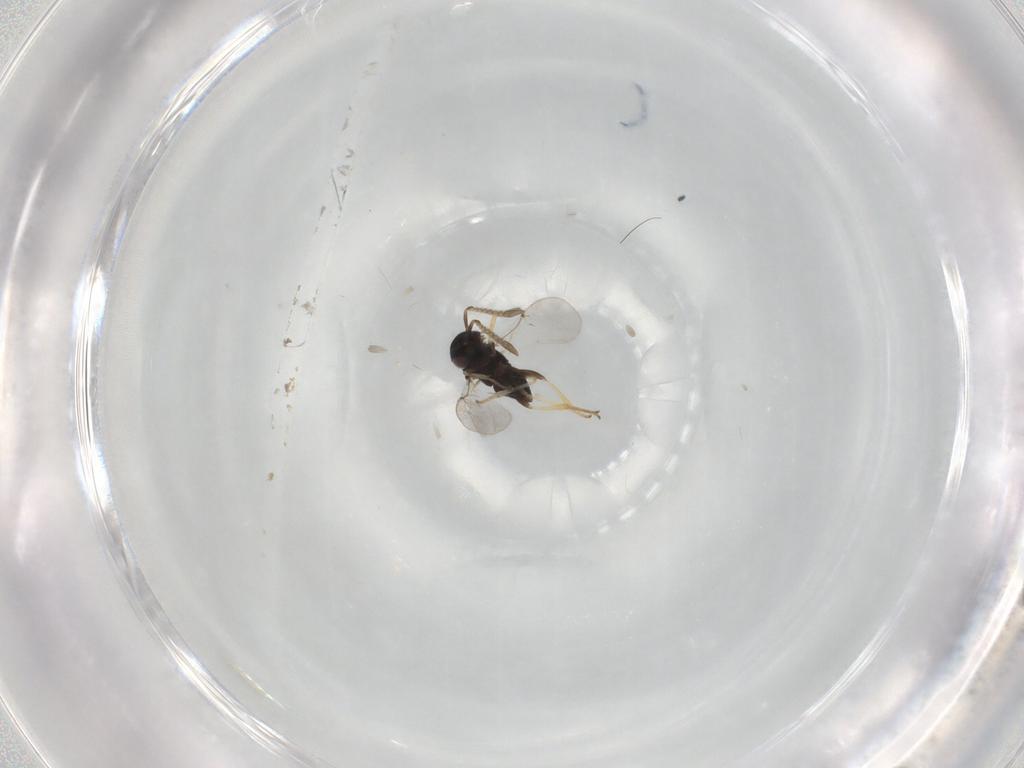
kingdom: Animalia
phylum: Arthropoda
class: Insecta
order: Hymenoptera
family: Encyrtidae
